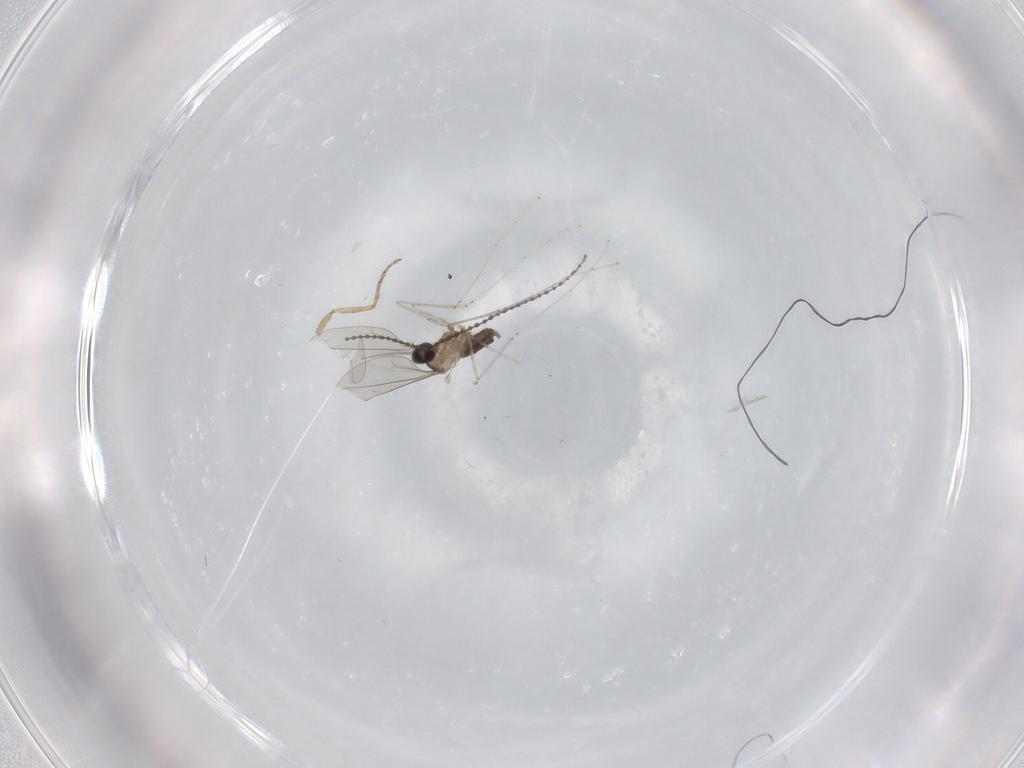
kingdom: Animalia
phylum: Arthropoda
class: Insecta
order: Diptera
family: Cecidomyiidae
